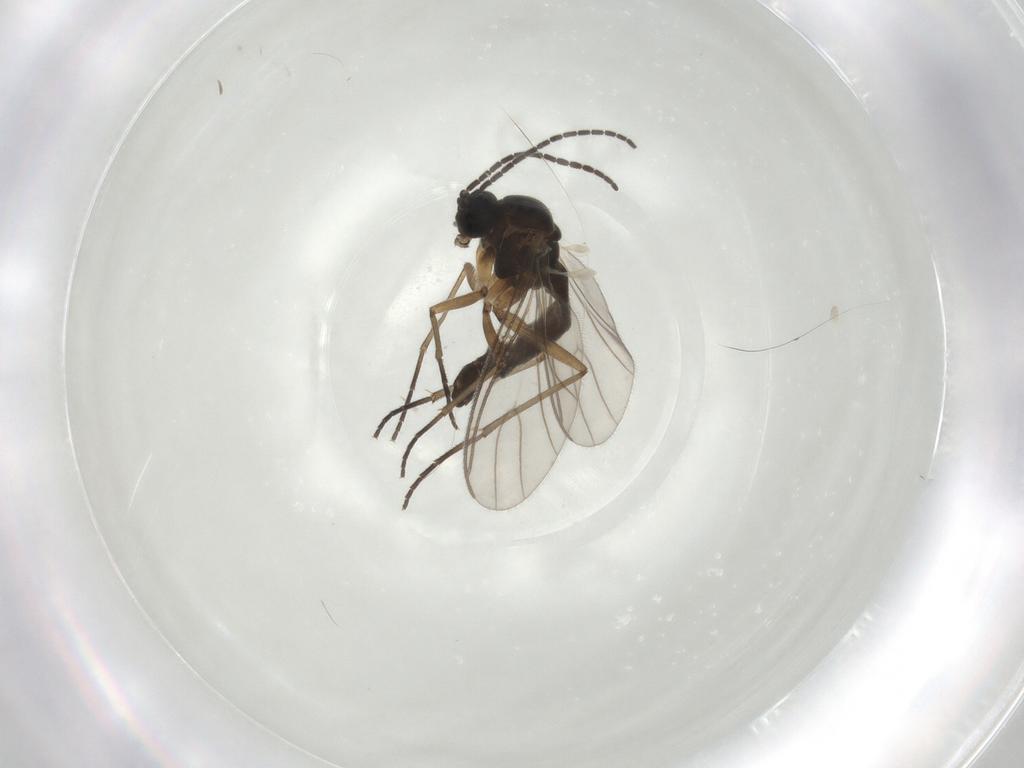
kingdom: Animalia
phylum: Arthropoda
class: Insecta
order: Diptera
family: Sciaridae
